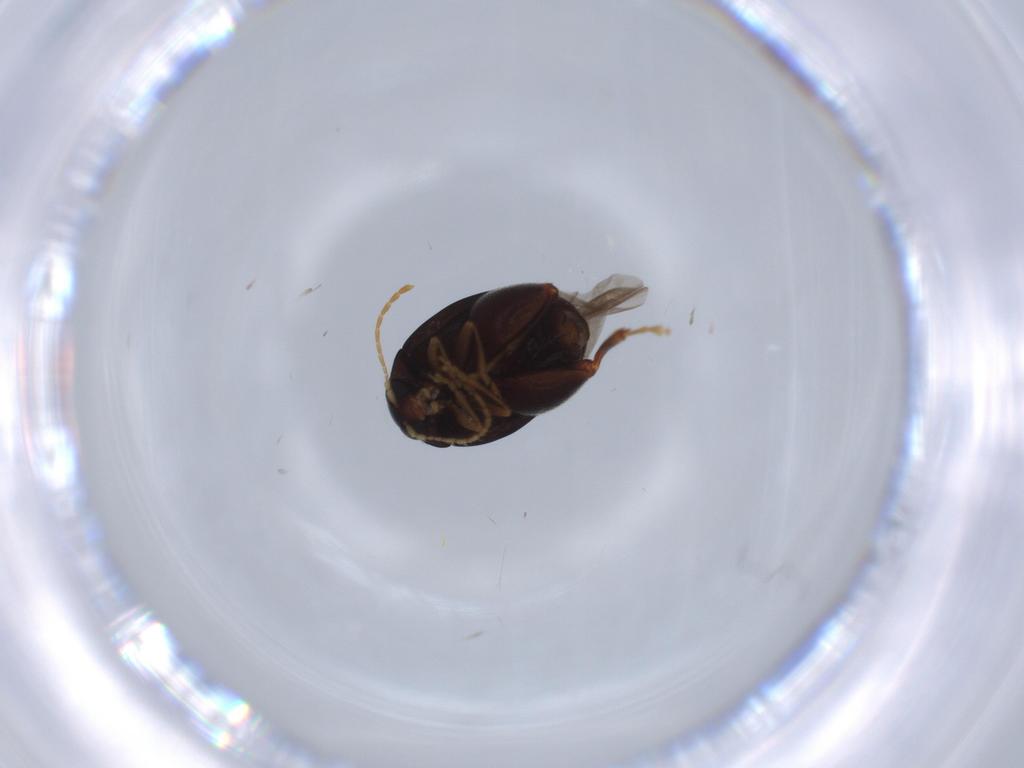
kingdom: Animalia
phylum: Arthropoda
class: Insecta
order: Coleoptera
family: Chrysomelidae
